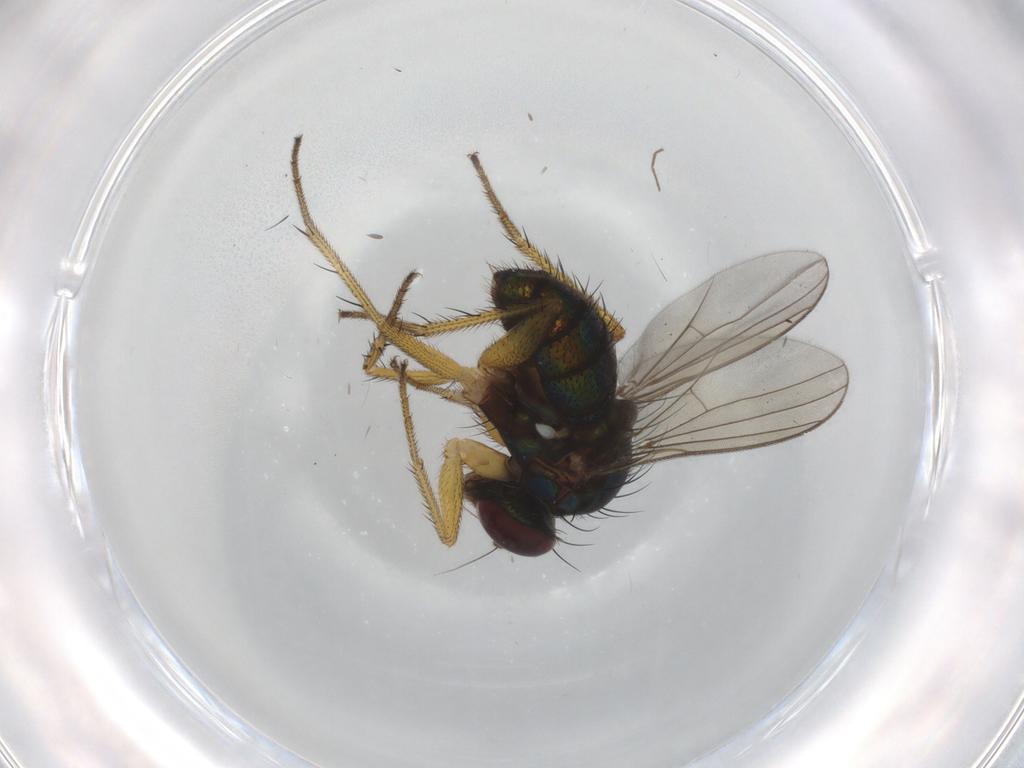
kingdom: Animalia
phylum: Arthropoda
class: Insecta
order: Diptera
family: Dolichopodidae
